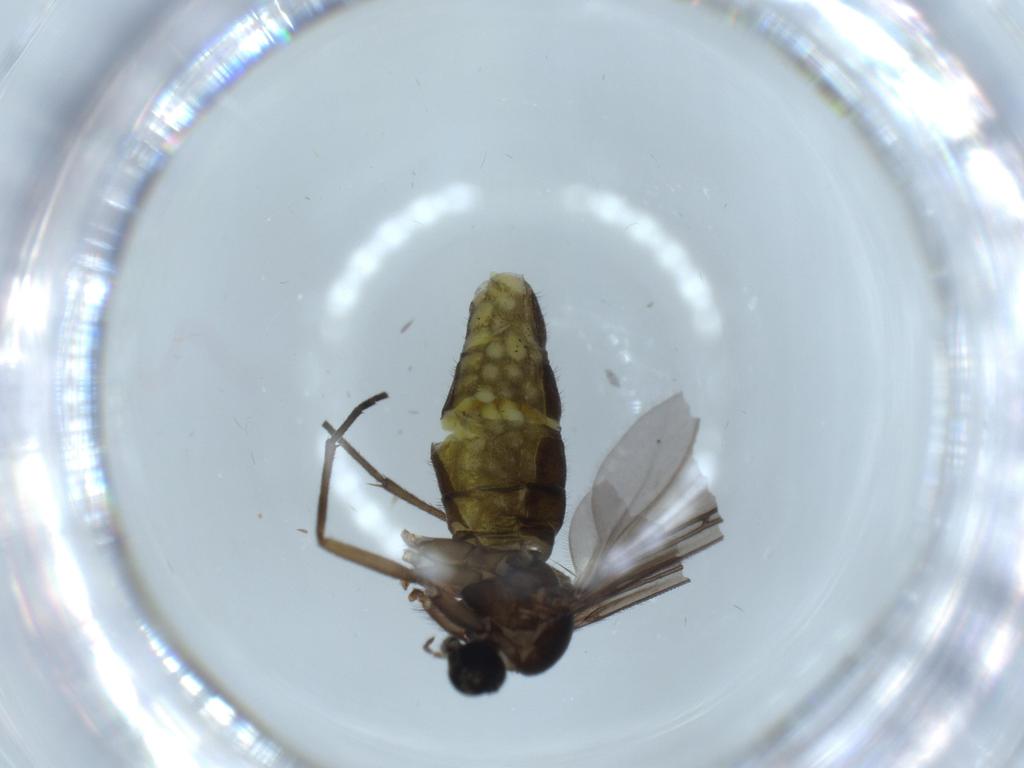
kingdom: Animalia
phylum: Arthropoda
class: Insecta
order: Diptera
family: Sciaridae
